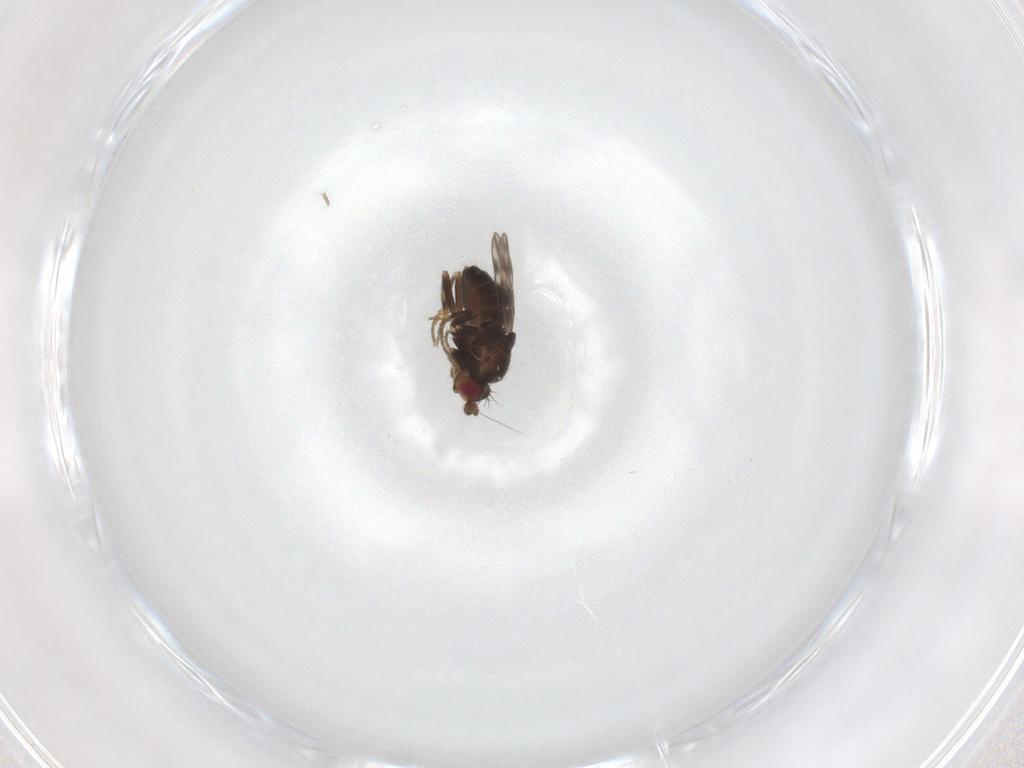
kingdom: Animalia
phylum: Arthropoda
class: Insecta
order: Diptera
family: Sphaeroceridae
